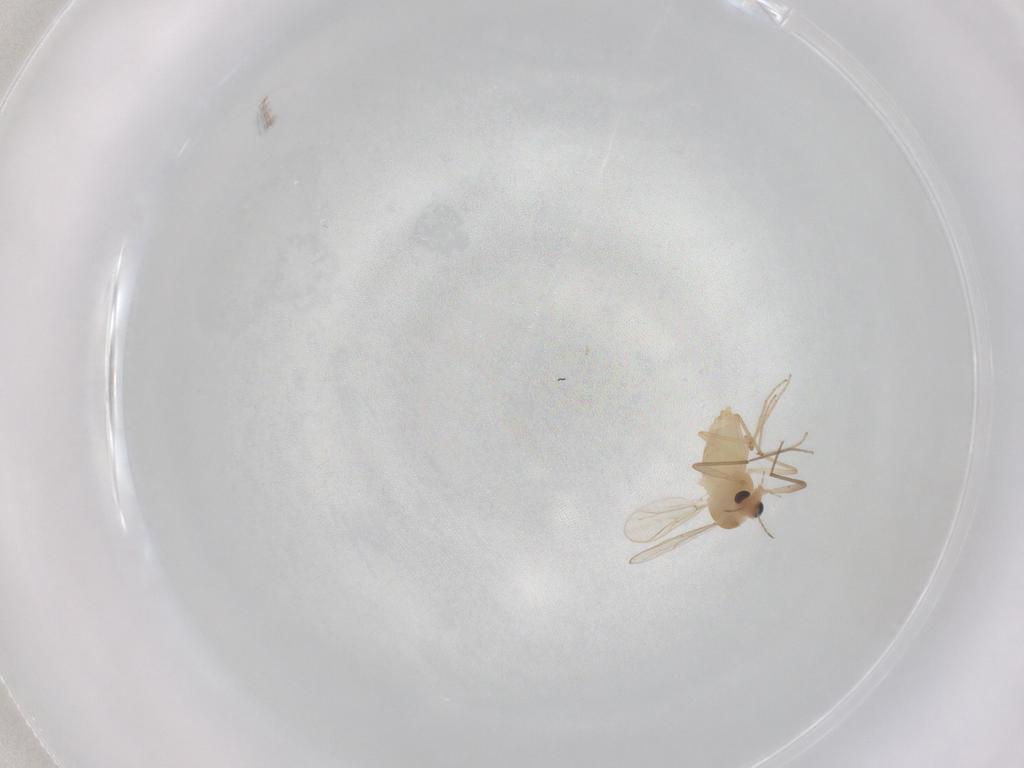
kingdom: Animalia
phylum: Arthropoda
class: Insecta
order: Diptera
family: Chironomidae
